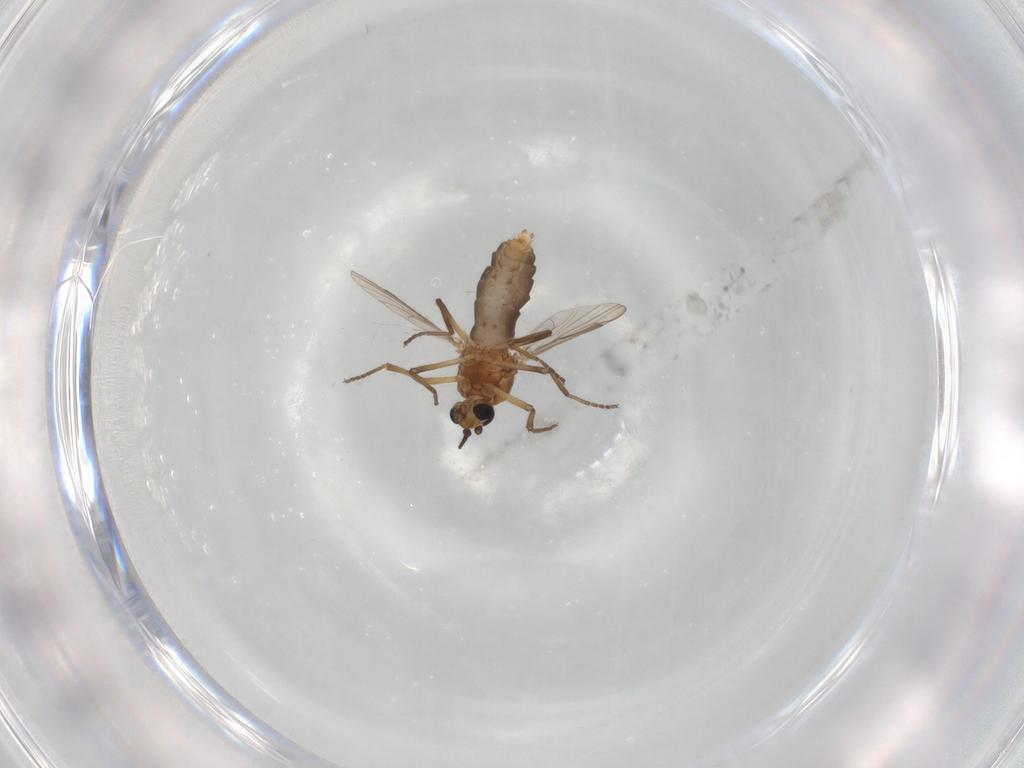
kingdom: Animalia
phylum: Arthropoda
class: Insecta
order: Diptera
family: Ceratopogonidae
